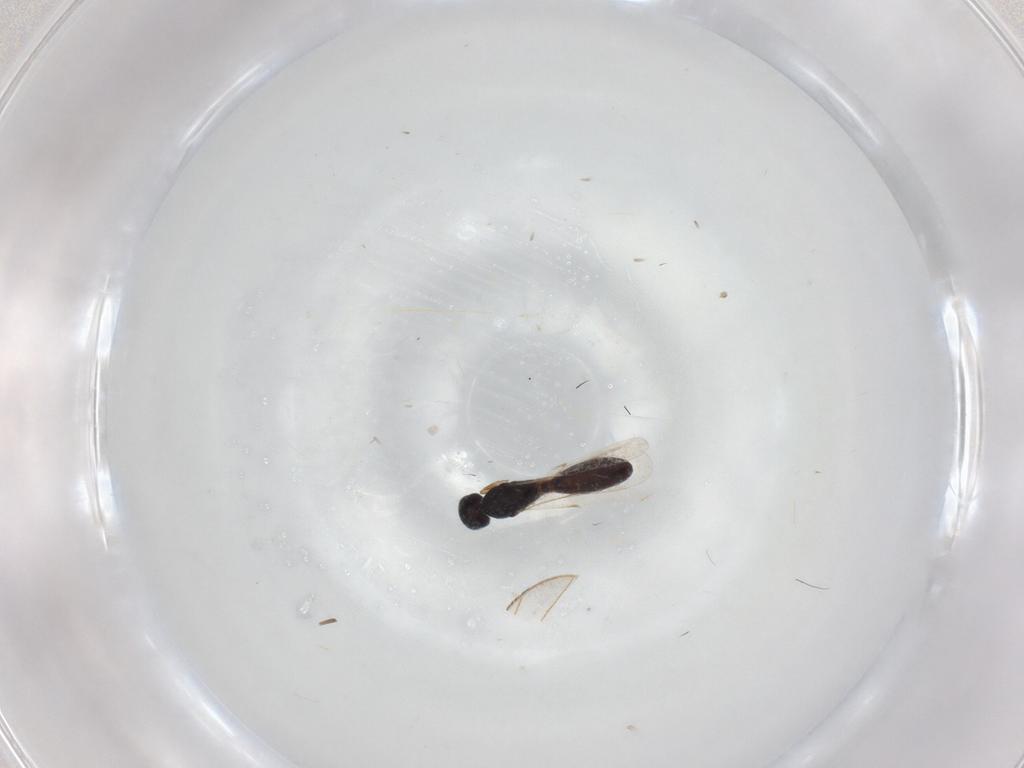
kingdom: Animalia
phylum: Arthropoda
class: Insecta
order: Hymenoptera
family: Scelionidae
